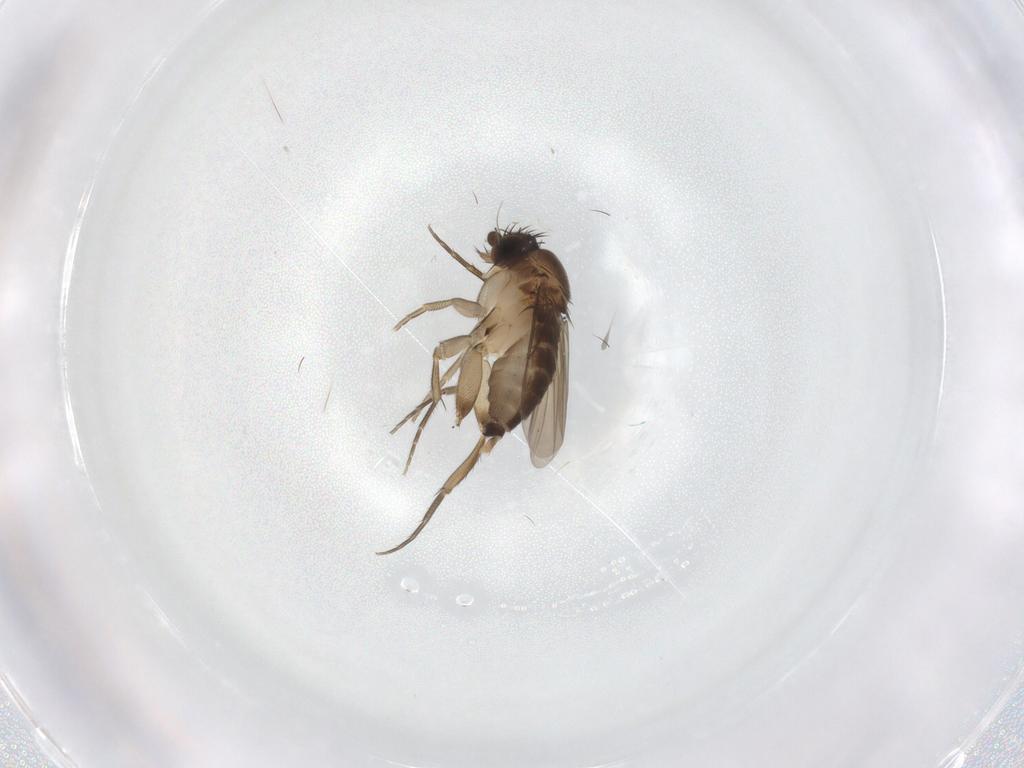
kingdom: Animalia
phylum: Arthropoda
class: Insecta
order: Diptera
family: Phoridae
